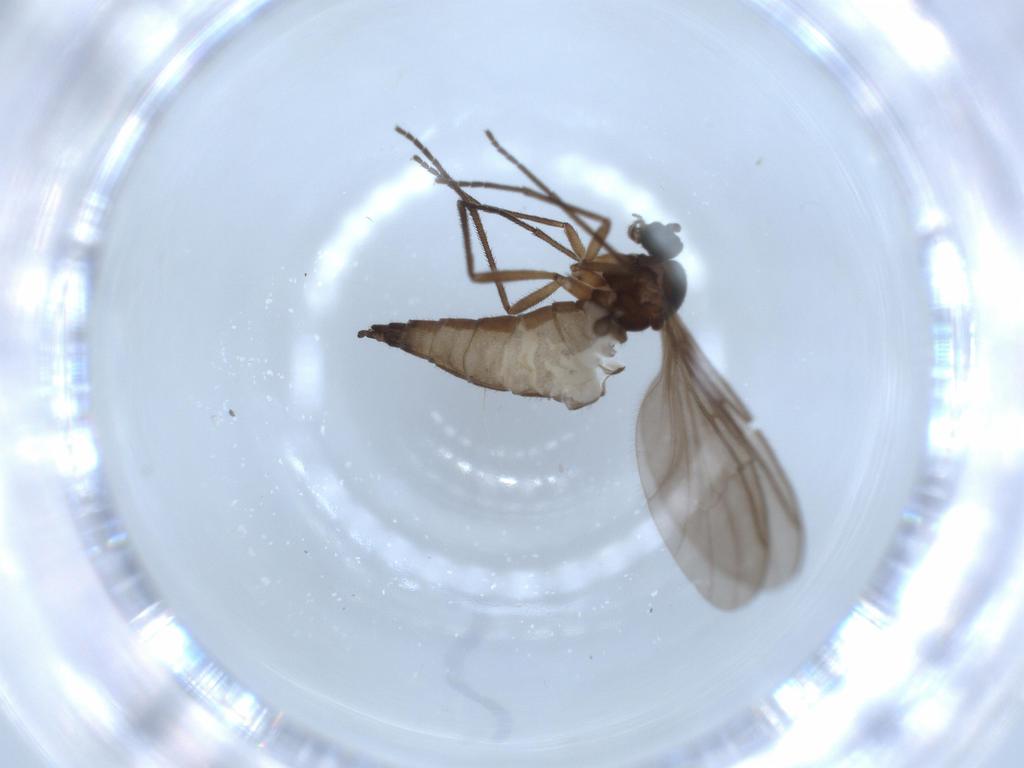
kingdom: Animalia
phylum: Arthropoda
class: Insecta
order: Diptera
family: Sciaridae
